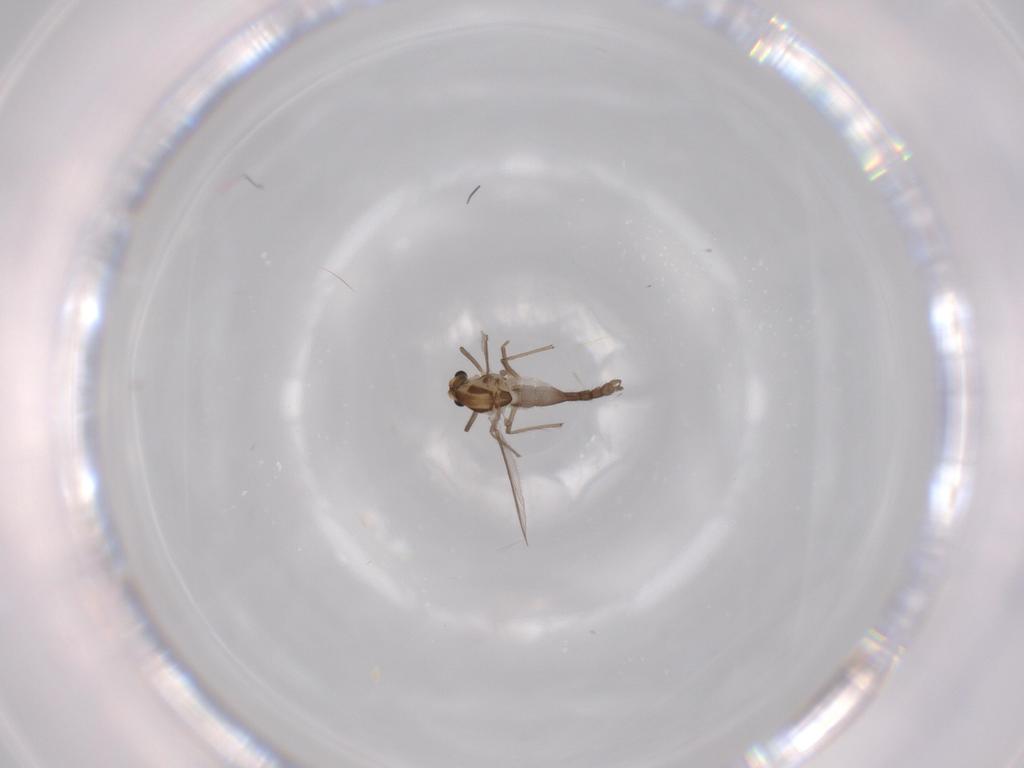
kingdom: Animalia
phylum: Arthropoda
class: Insecta
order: Diptera
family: Chironomidae
